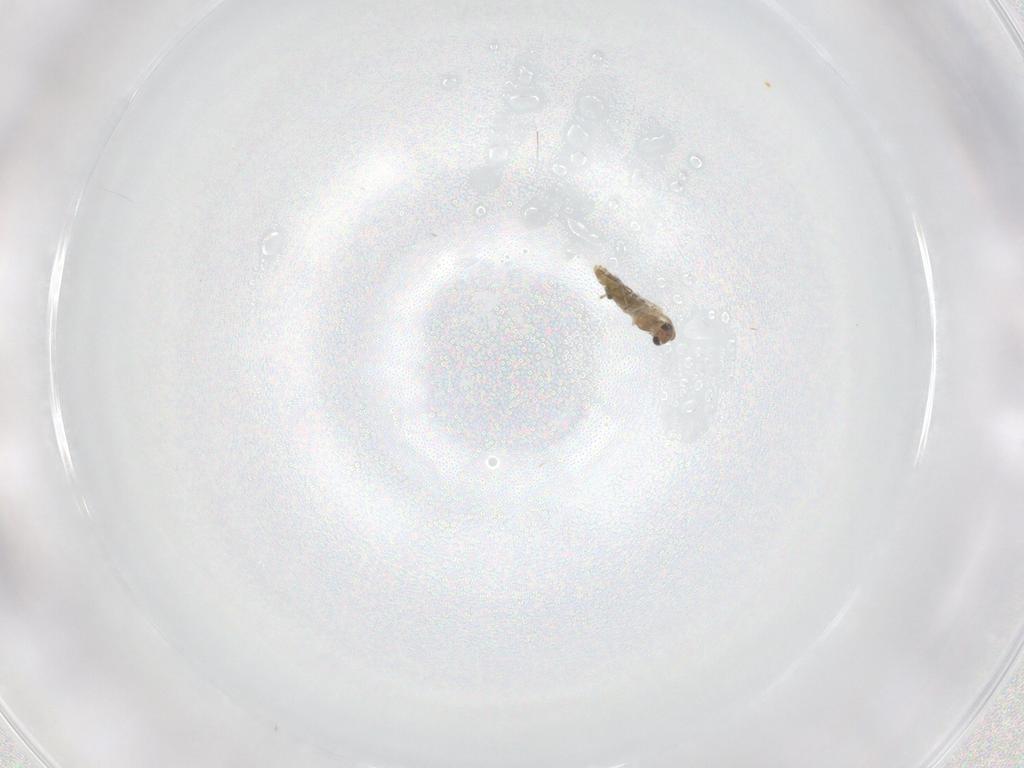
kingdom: Animalia
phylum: Arthropoda
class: Insecta
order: Diptera
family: Chironomidae
